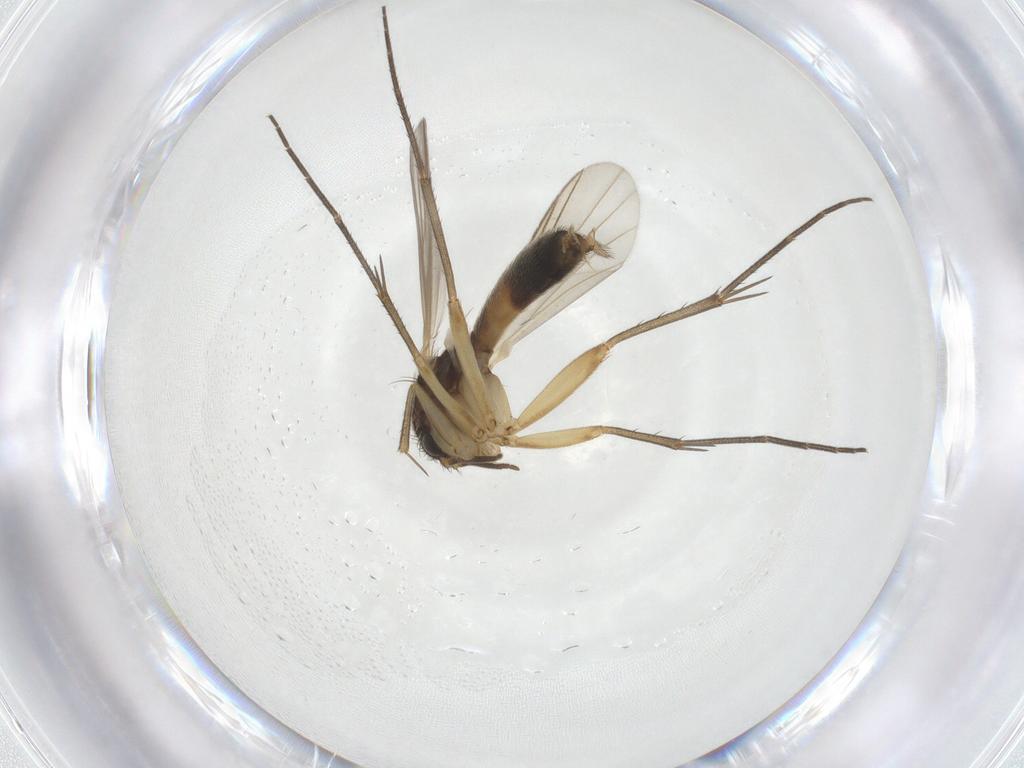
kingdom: Animalia
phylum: Arthropoda
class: Insecta
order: Diptera
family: Mycetophilidae
